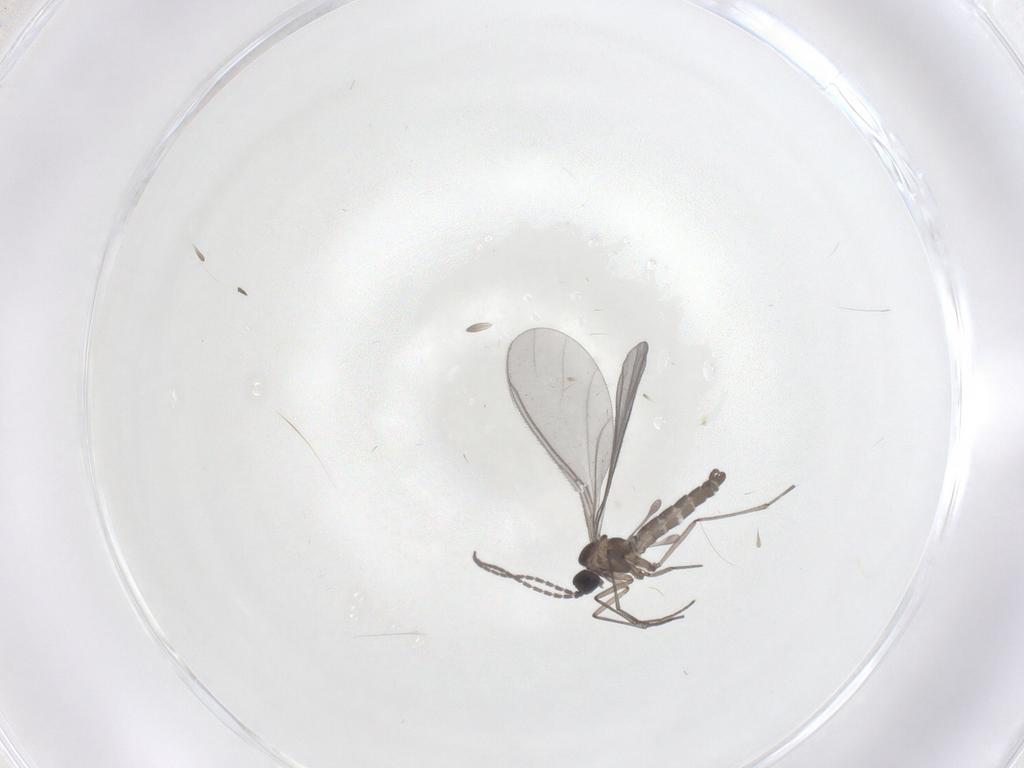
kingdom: Animalia
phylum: Arthropoda
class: Insecta
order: Diptera
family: Sciaridae
